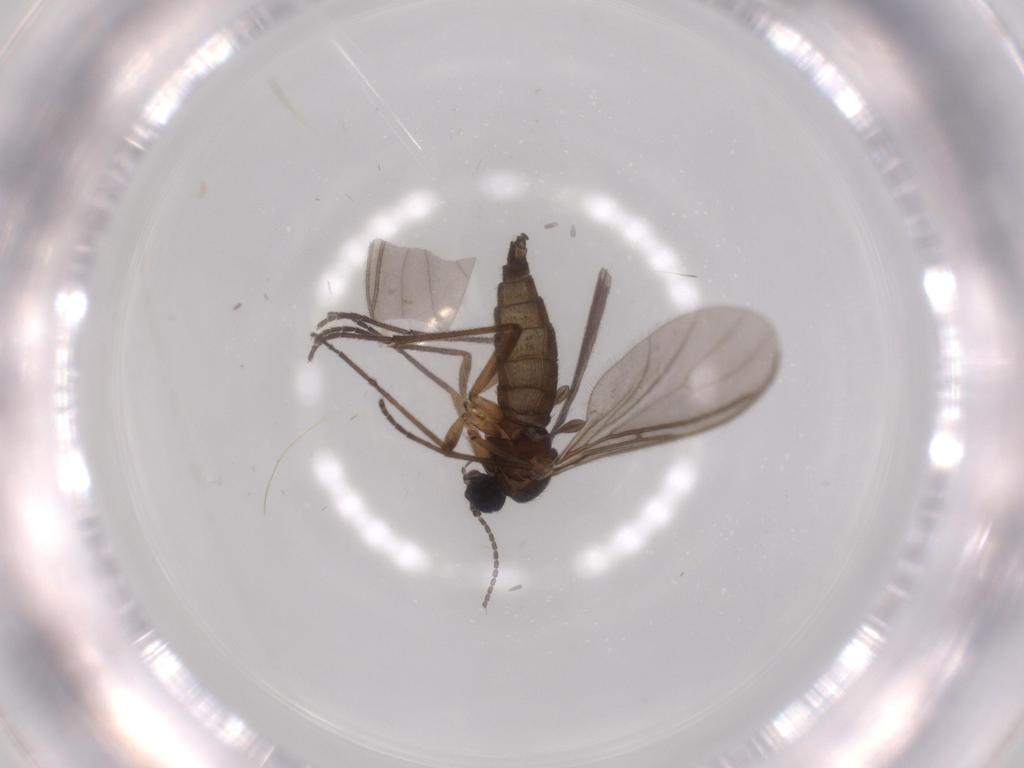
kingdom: Animalia
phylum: Arthropoda
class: Insecta
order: Diptera
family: Sciaridae
